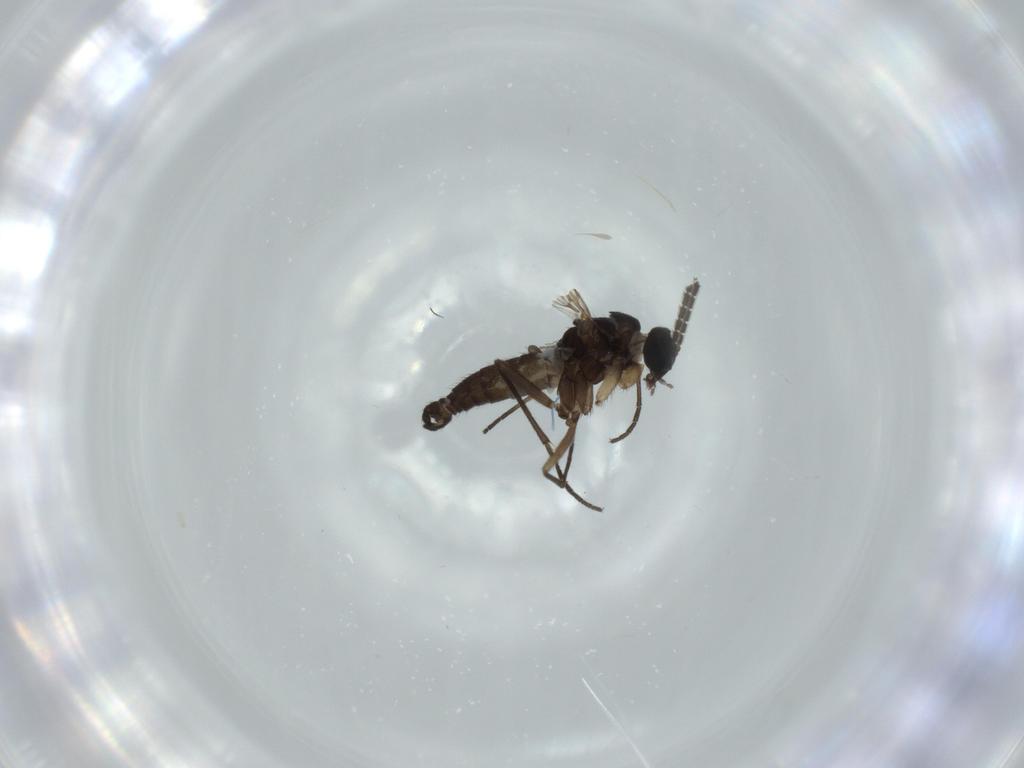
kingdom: Animalia
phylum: Arthropoda
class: Insecta
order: Diptera
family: Sciaridae
